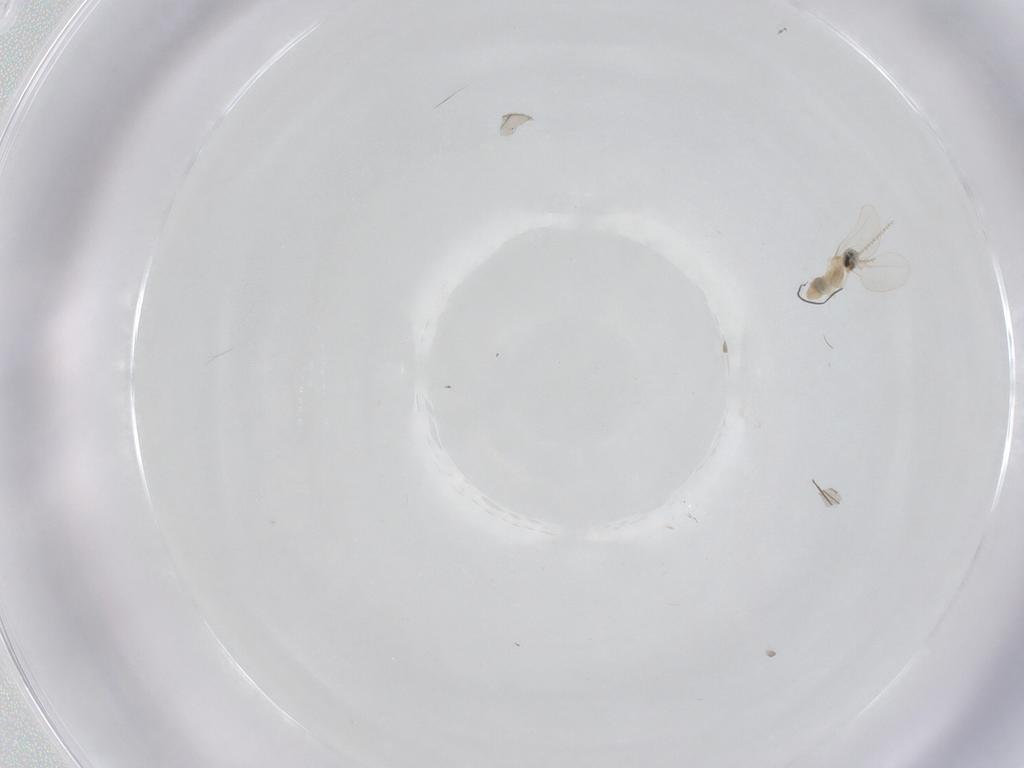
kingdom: Animalia
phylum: Arthropoda
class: Insecta
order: Diptera
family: Cecidomyiidae
